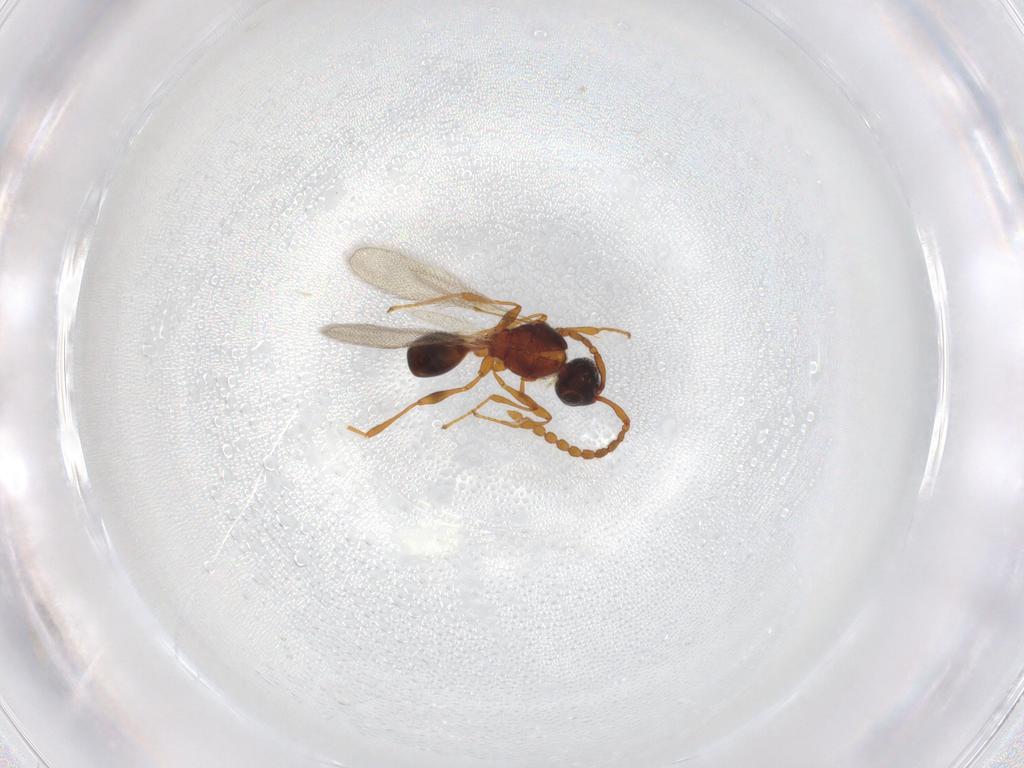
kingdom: Animalia
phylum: Arthropoda
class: Insecta
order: Hymenoptera
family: Diapriidae
